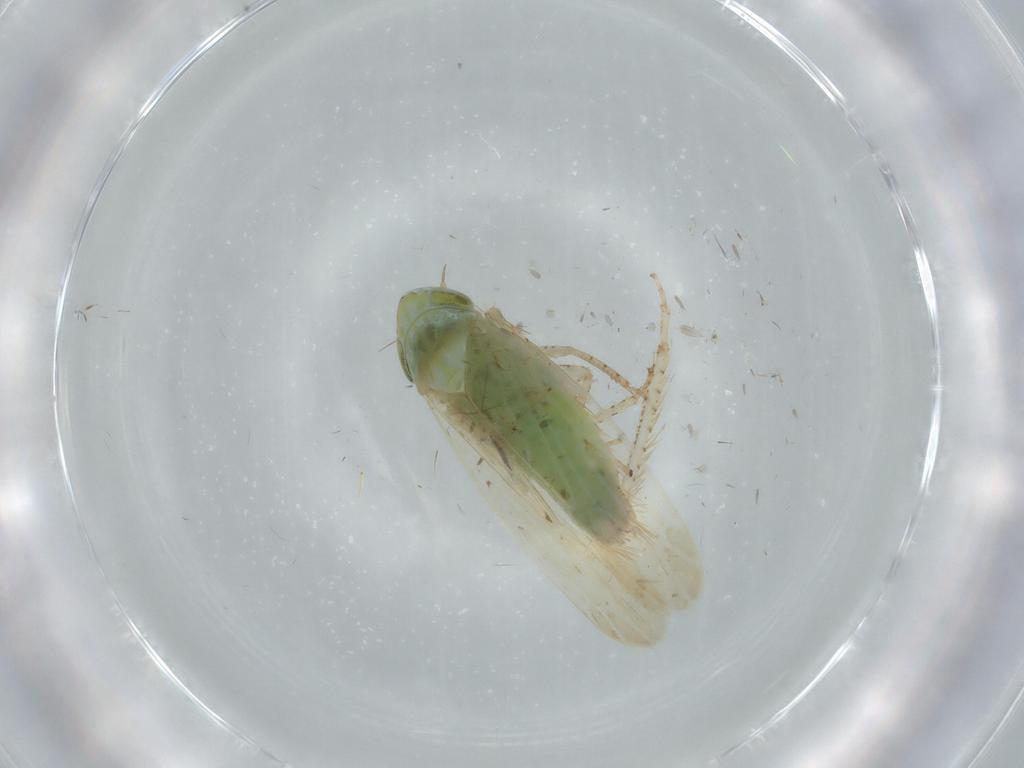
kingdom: Animalia
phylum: Arthropoda
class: Insecta
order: Hemiptera
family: Cicadellidae
